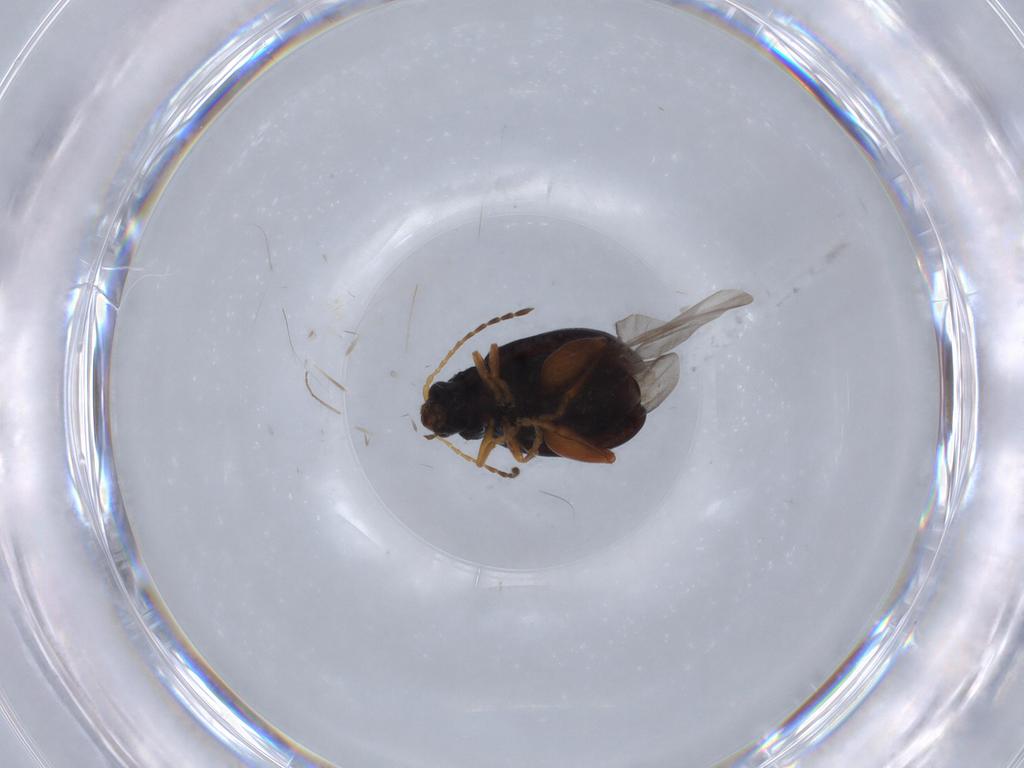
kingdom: Animalia
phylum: Arthropoda
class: Insecta
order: Coleoptera
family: Chrysomelidae
